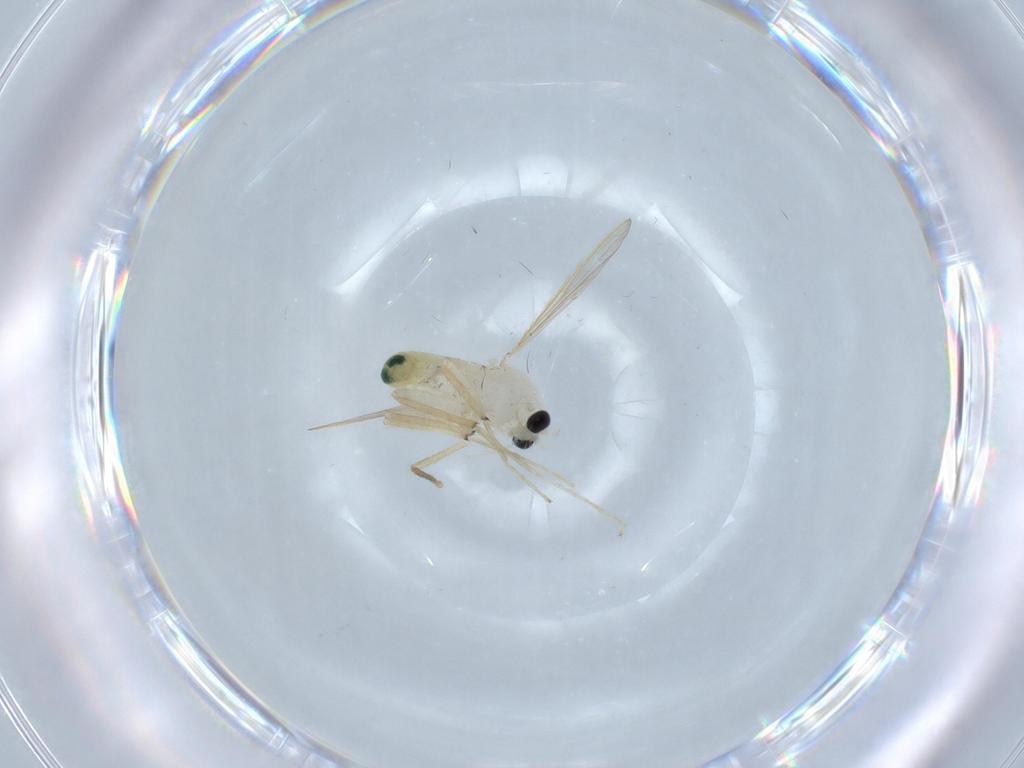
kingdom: Animalia
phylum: Arthropoda
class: Insecta
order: Diptera
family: Chironomidae
